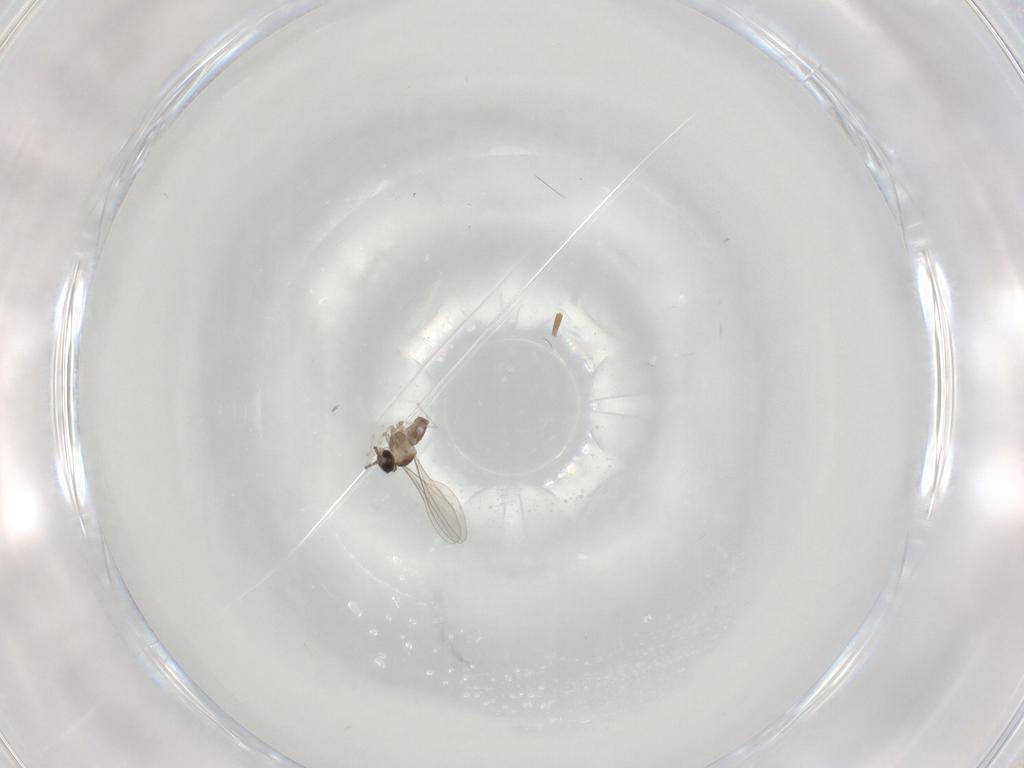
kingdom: Animalia
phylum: Arthropoda
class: Insecta
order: Diptera
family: Cecidomyiidae
